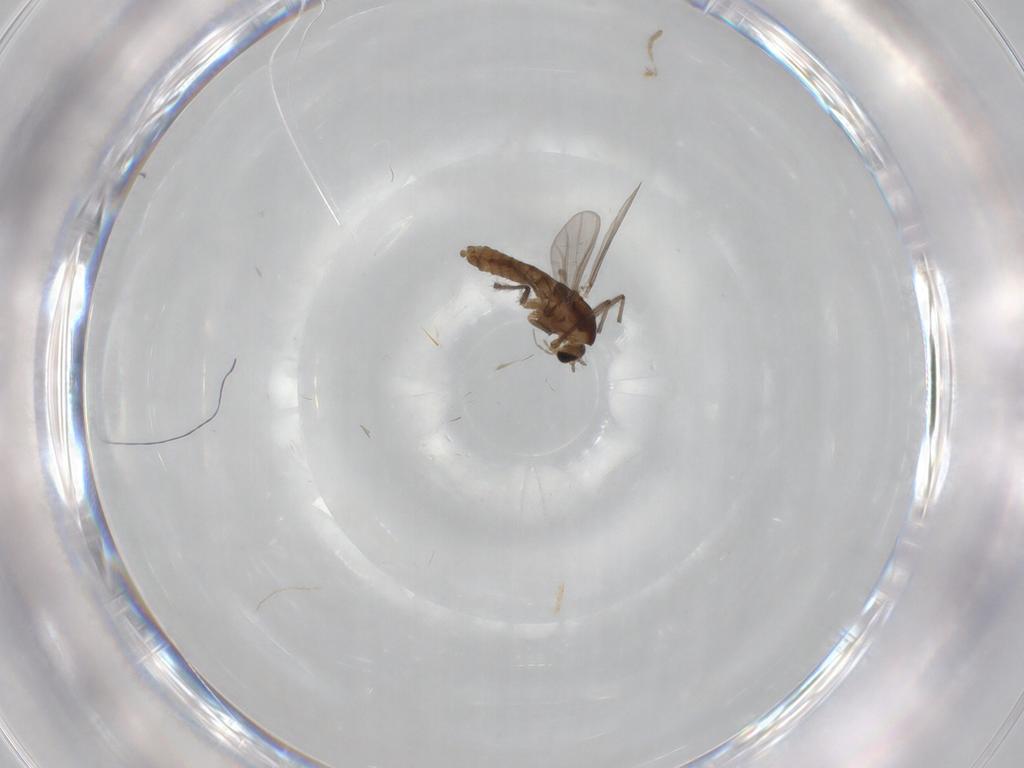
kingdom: Animalia
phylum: Arthropoda
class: Insecta
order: Diptera
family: Chironomidae
